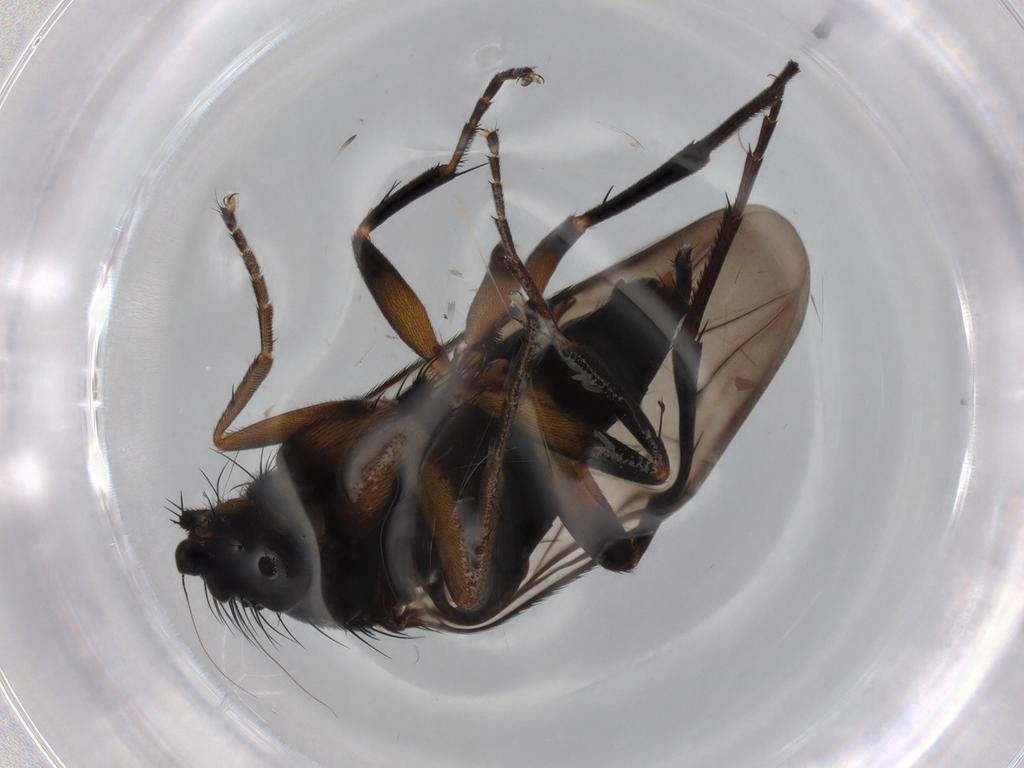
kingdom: Animalia
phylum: Arthropoda
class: Insecta
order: Diptera
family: Phoridae
